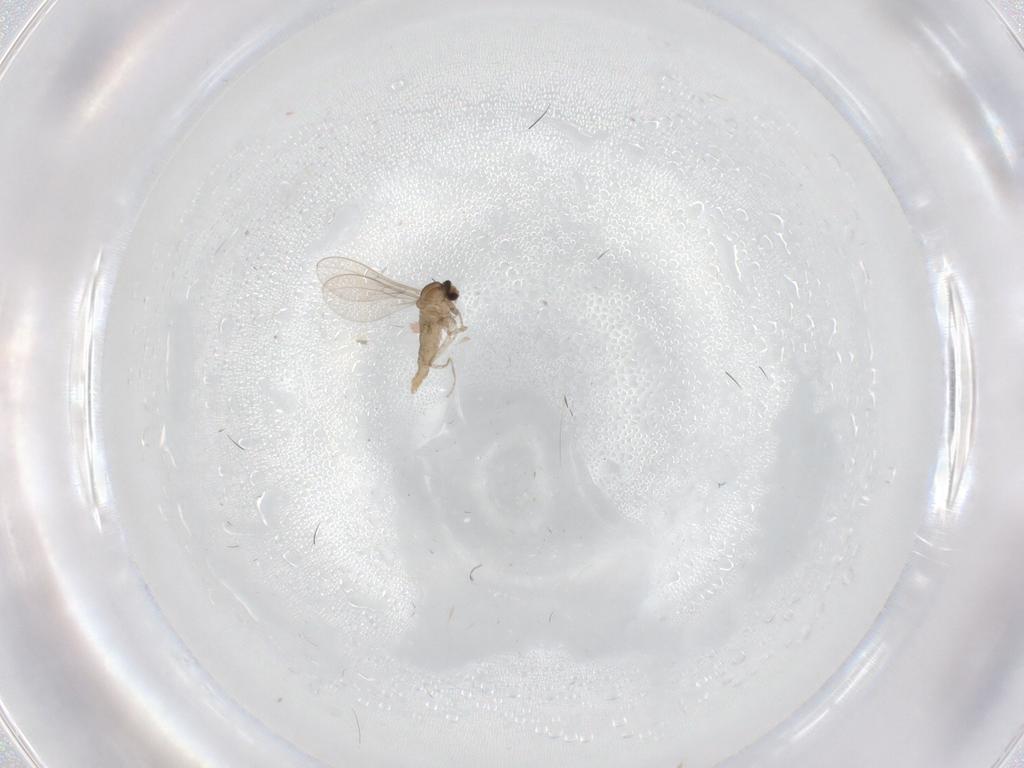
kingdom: Animalia
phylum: Arthropoda
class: Insecta
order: Diptera
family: Cecidomyiidae
